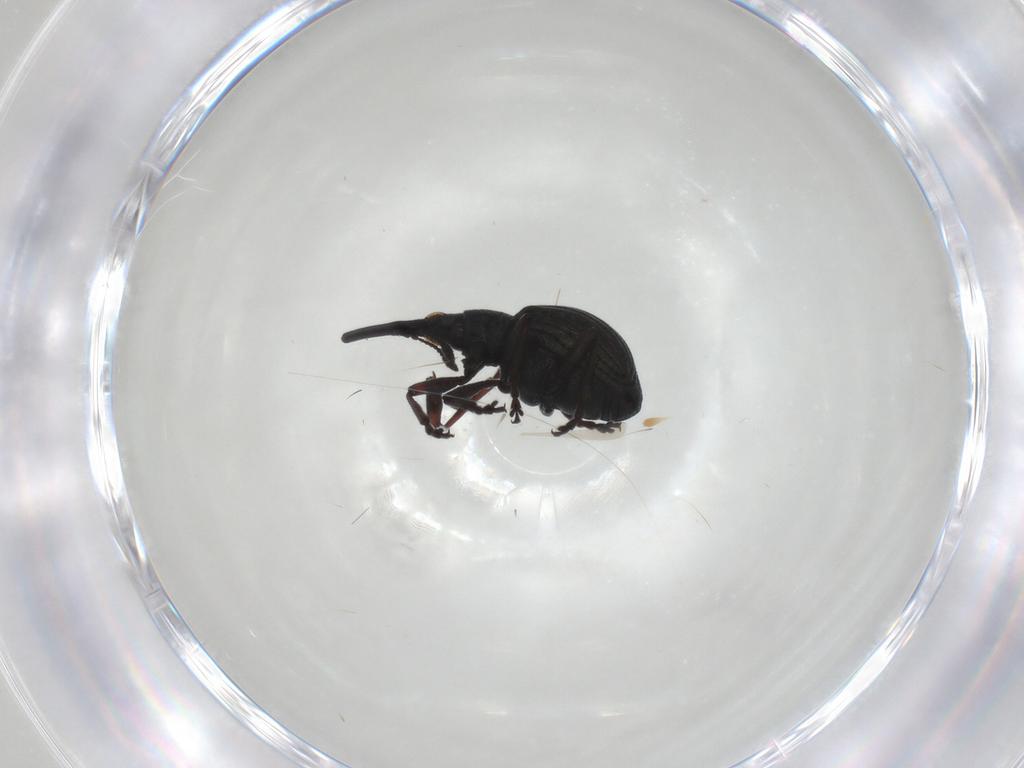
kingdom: Animalia
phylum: Arthropoda
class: Insecta
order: Coleoptera
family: Brentidae
